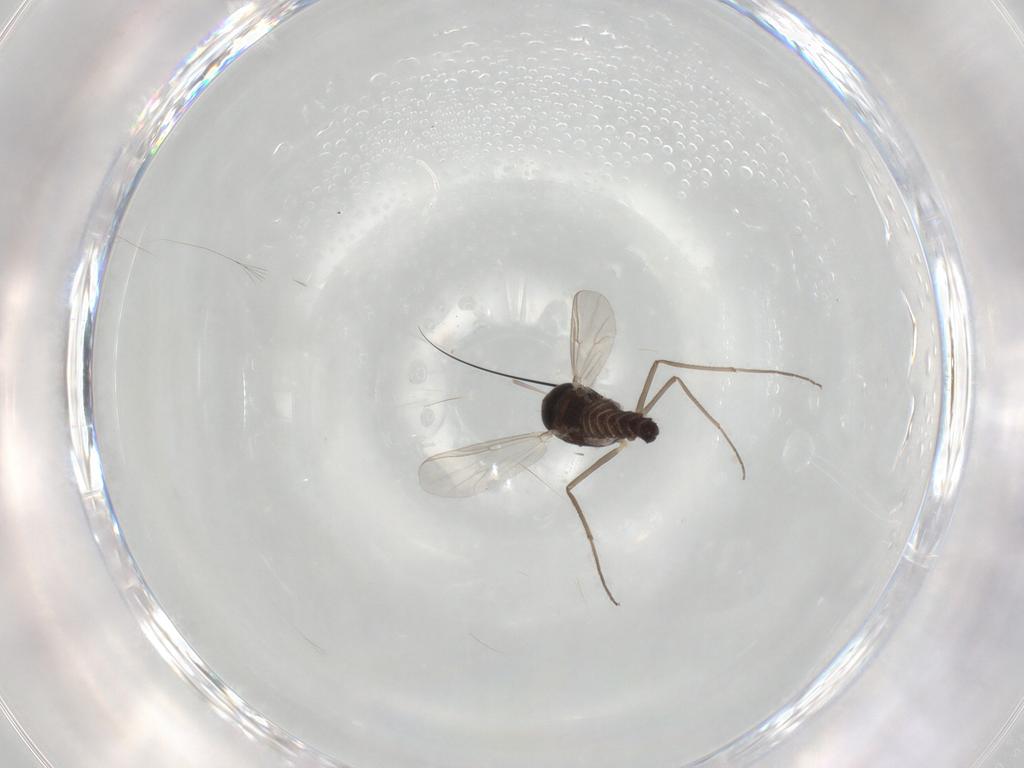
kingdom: Animalia
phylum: Arthropoda
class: Insecta
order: Diptera
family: Chironomidae
